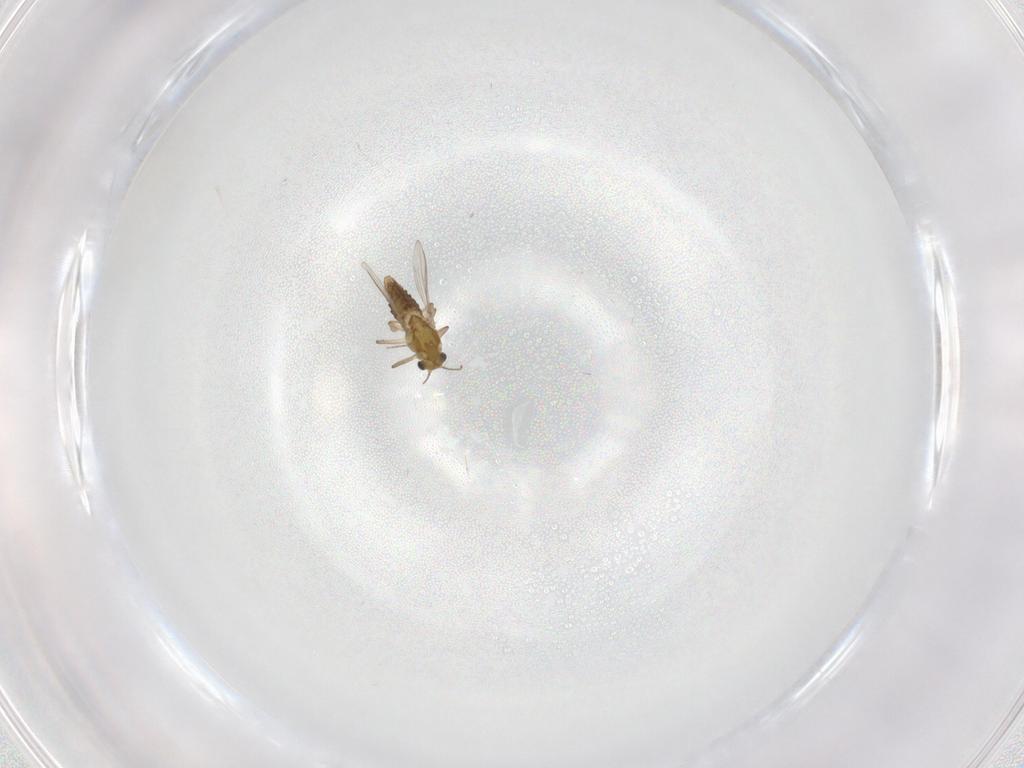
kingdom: Animalia
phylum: Arthropoda
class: Insecta
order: Diptera
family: Chironomidae
